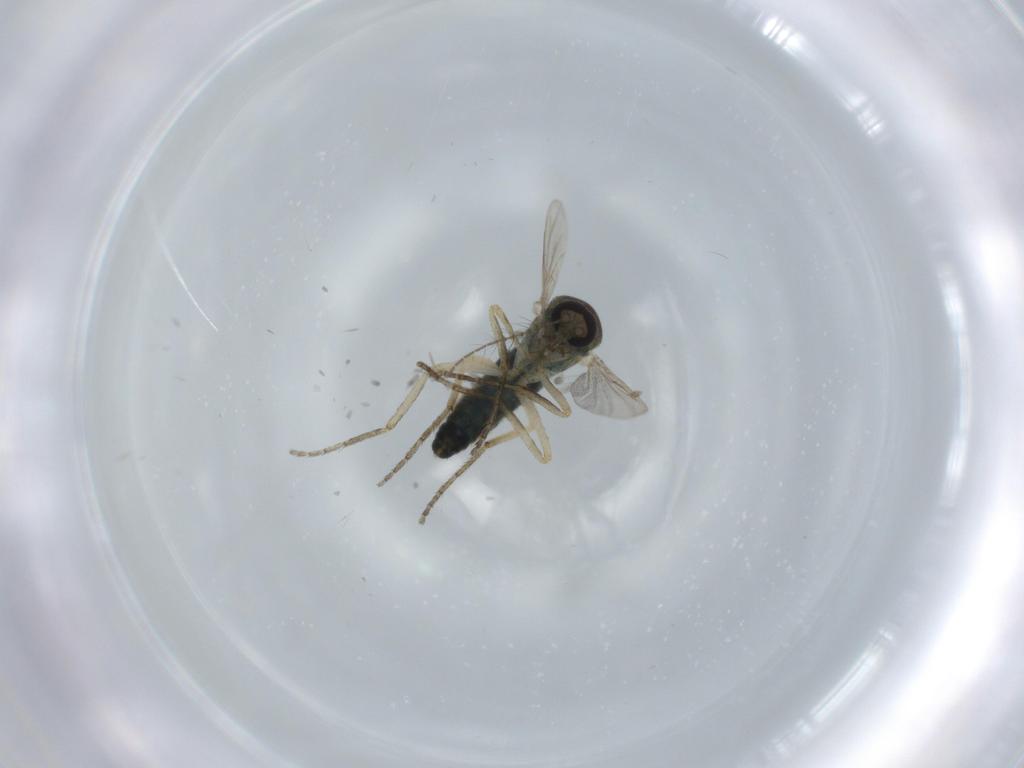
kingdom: Animalia
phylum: Arthropoda
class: Insecta
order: Diptera
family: Ceratopogonidae
